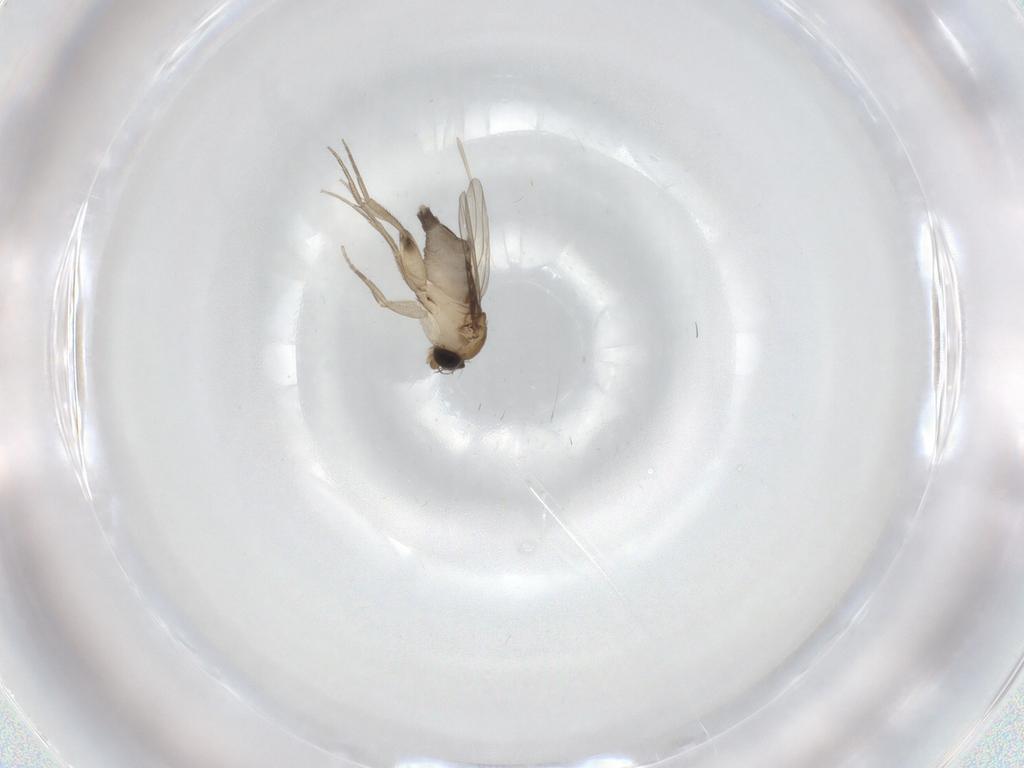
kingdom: Animalia
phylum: Arthropoda
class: Insecta
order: Diptera
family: Phoridae
